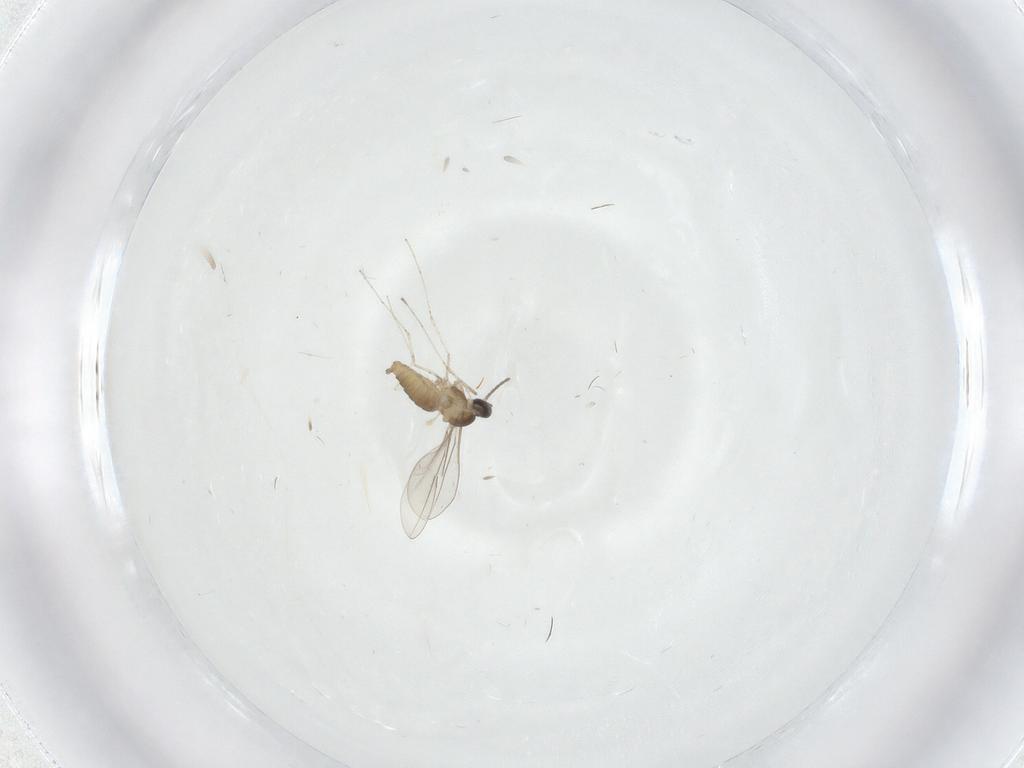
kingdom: Animalia
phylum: Arthropoda
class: Insecta
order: Diptera
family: Cecidomyiidae
